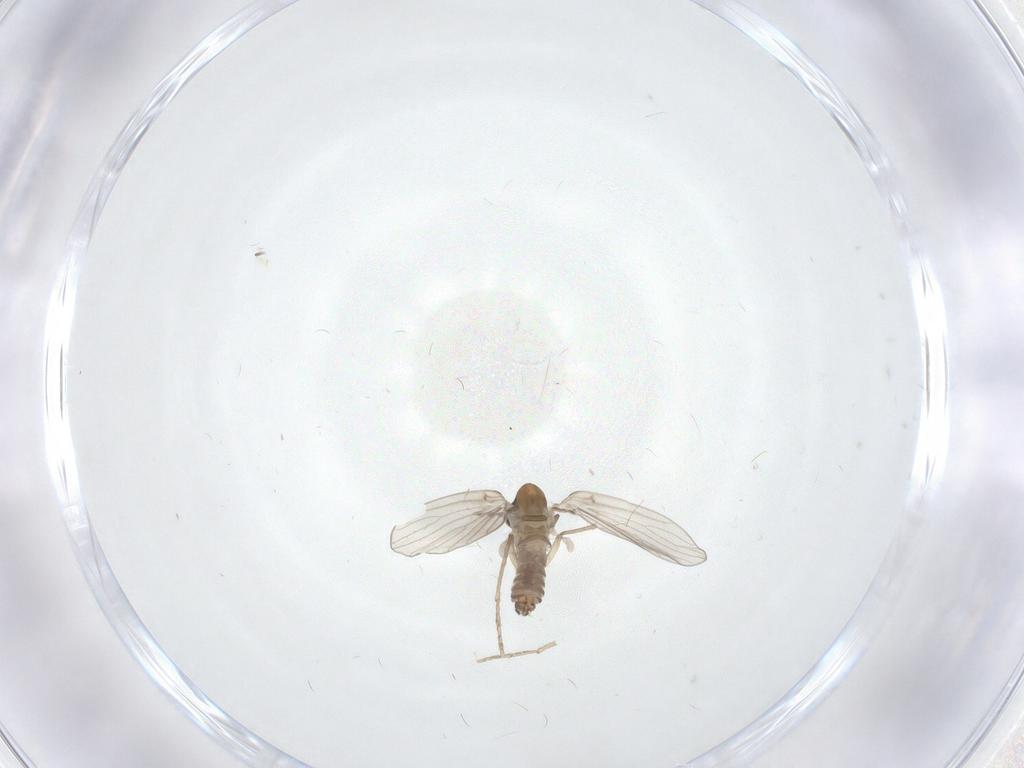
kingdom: Animalia
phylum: Arthropoda
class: Insecta
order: Diptera
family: Psychodidae
